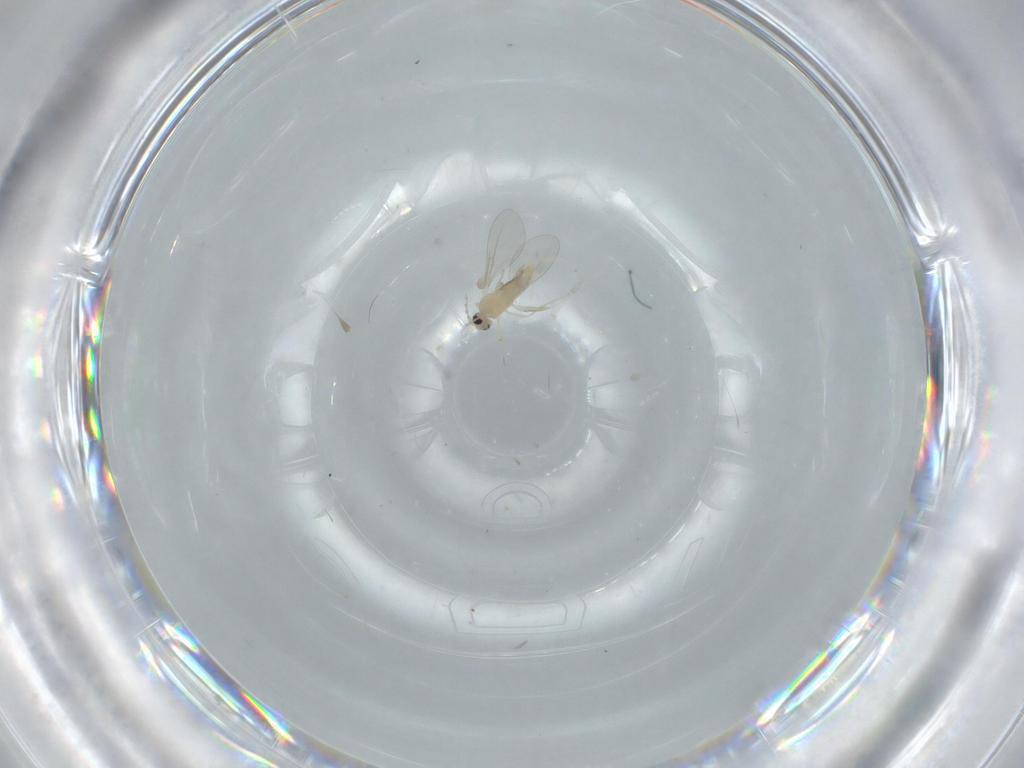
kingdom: Animalia
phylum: Arthropoda
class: Insecta
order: Diptera
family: Cecidomyiidae
